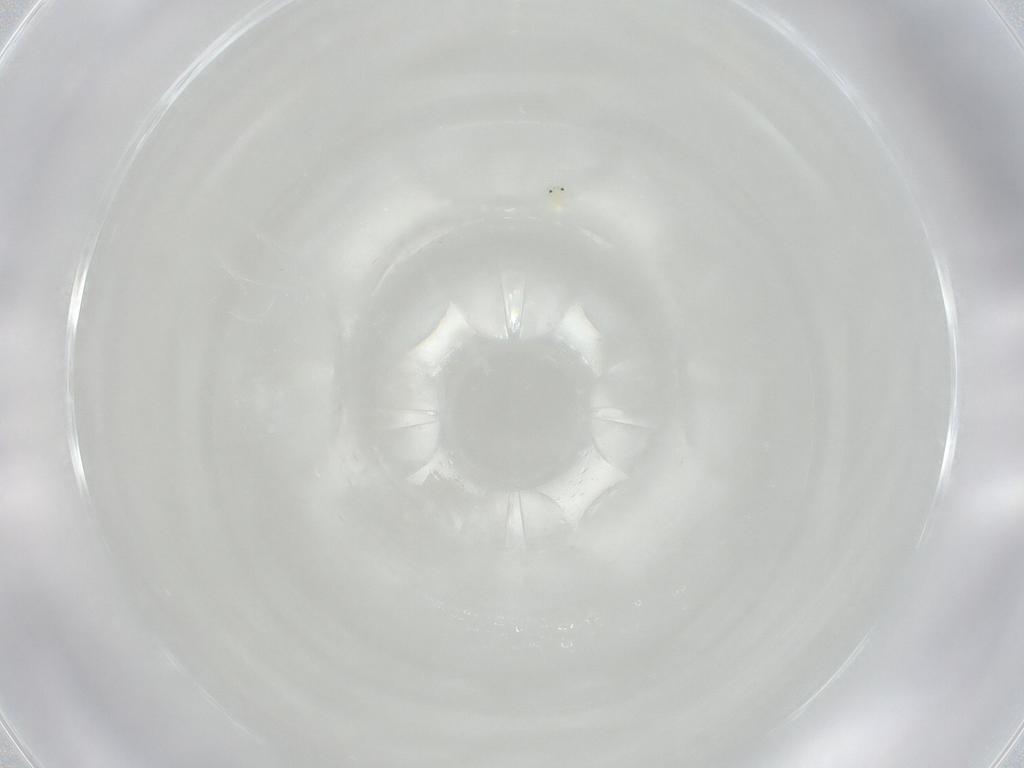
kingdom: Animalia
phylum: Arthropoda
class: Arachnida
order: Trombidiformes
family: Arrenuridae
